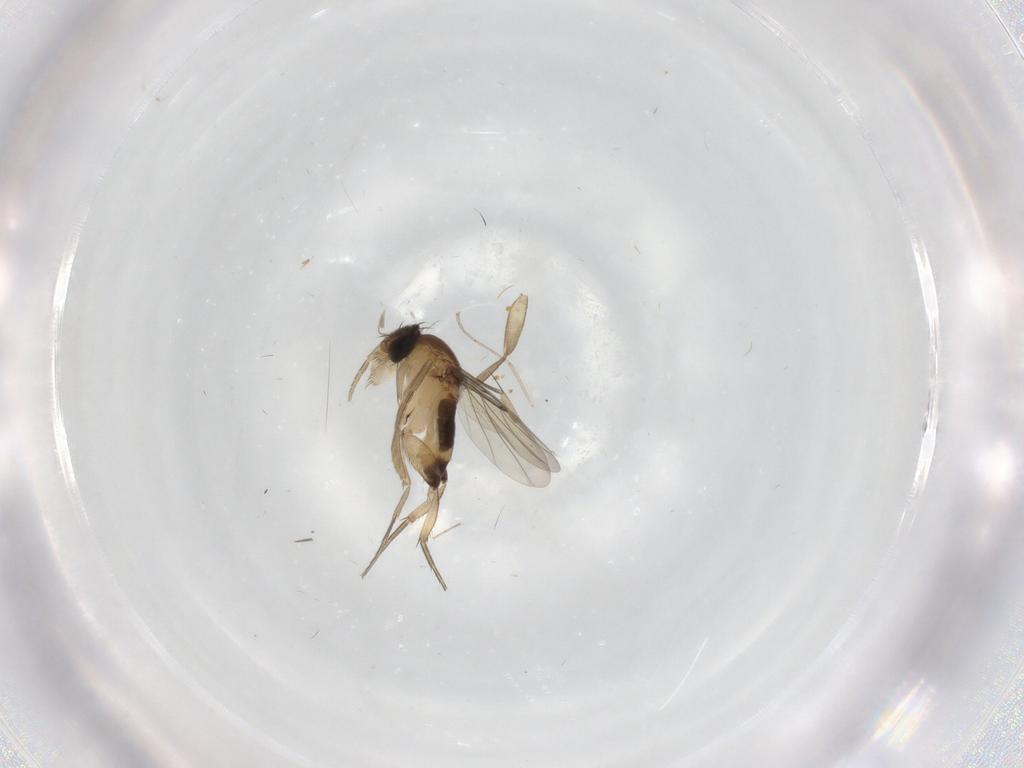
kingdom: Animalia
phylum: Arthropoda
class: Insecta
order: Diptera
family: Phoridae
